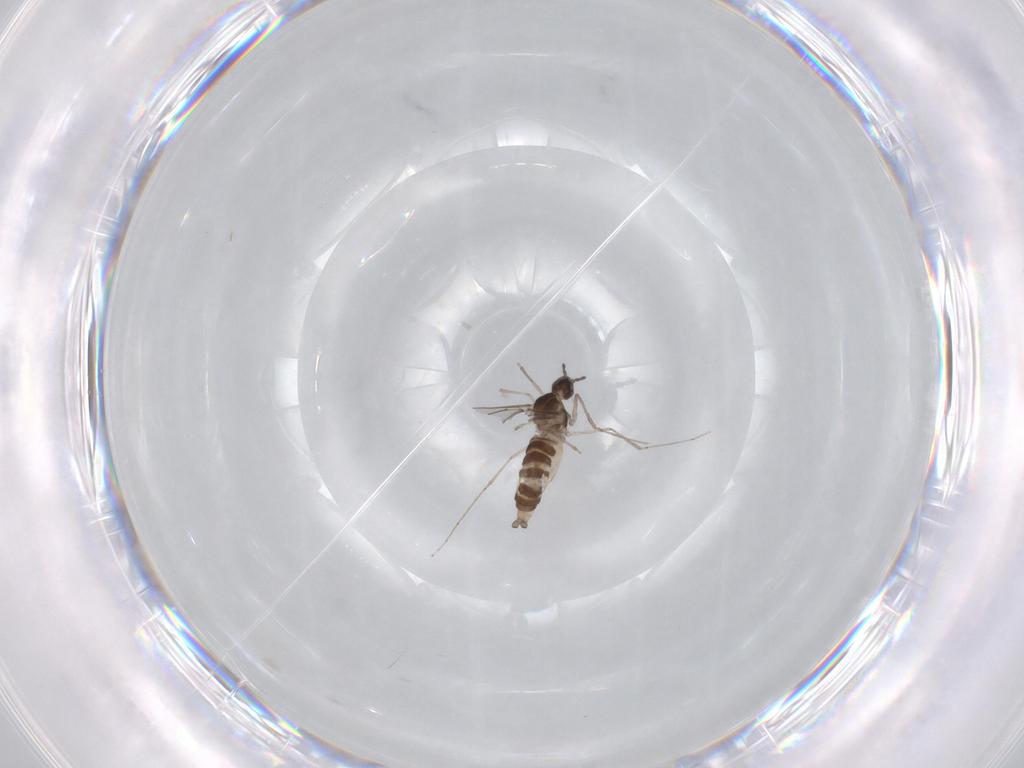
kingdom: Animalia
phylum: Arthropoda
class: Insecta
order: Diptera
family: Chironomidae
